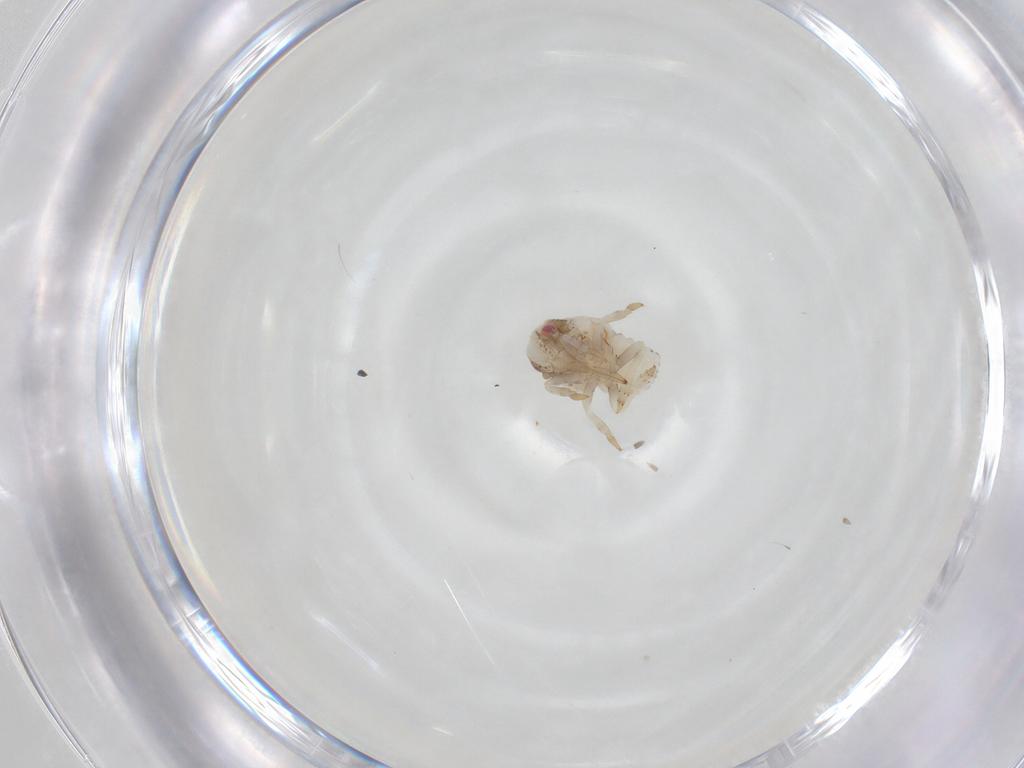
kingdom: Animalia
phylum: Arthropoda
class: Insecta
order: Hemiptera
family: Acanaloniidae
